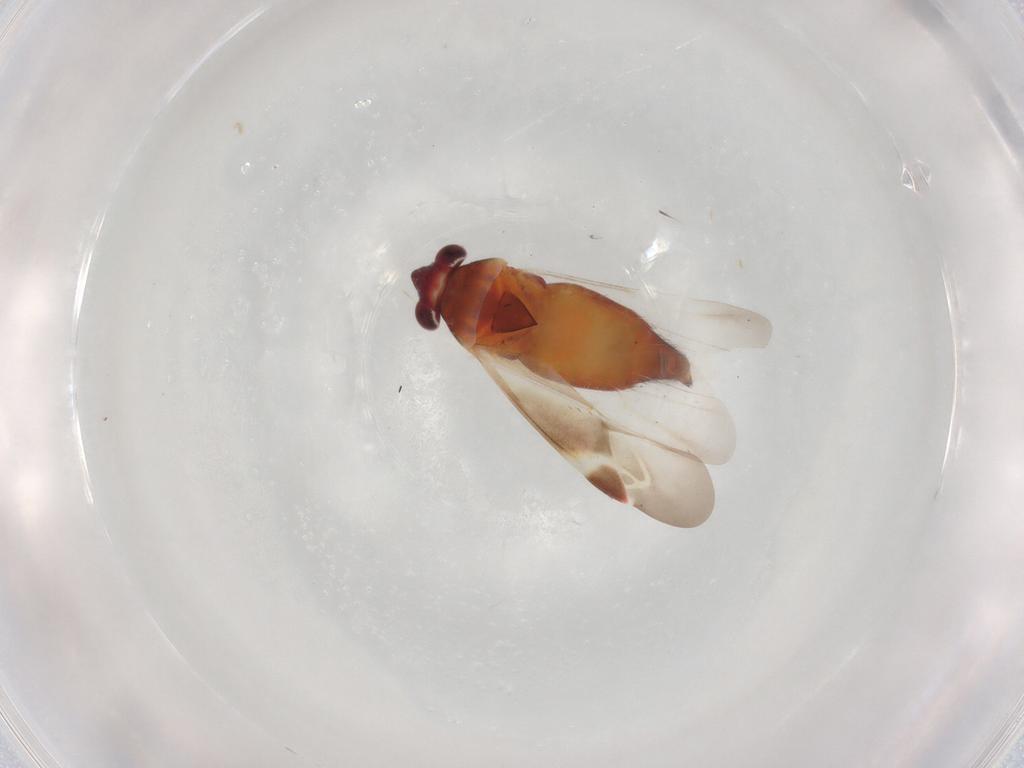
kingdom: Animalia
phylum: Arthropoda
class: Insecta
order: Hemiptera
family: Miridae
